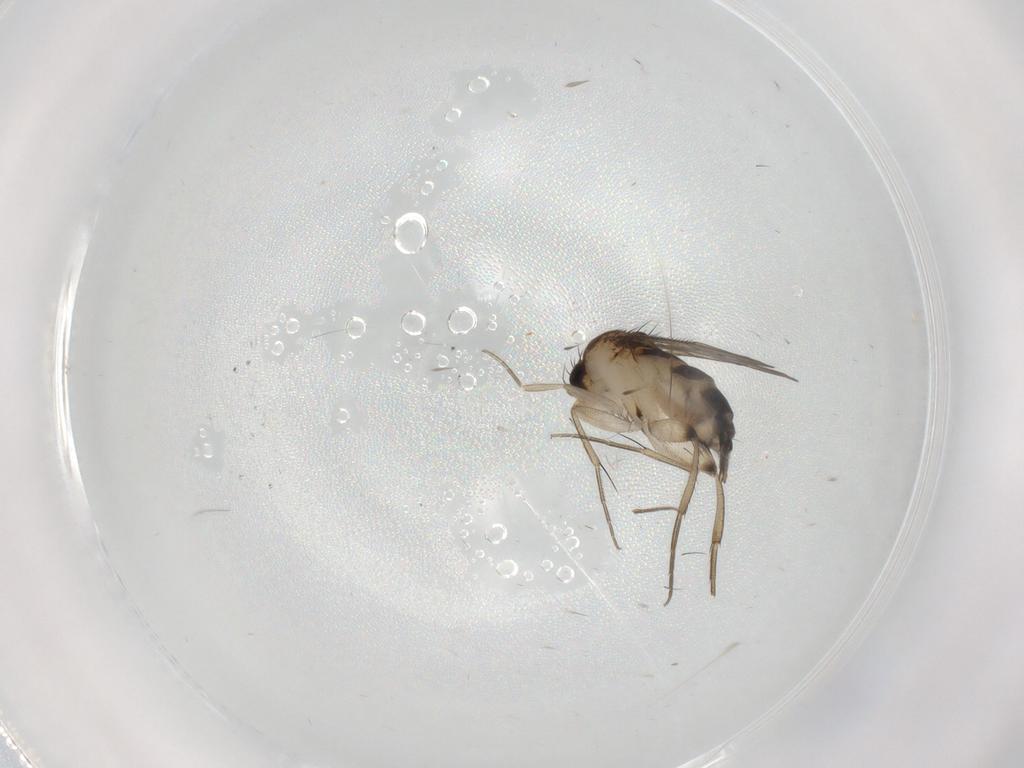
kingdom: Animalia
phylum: Arthropoda
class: Insecta
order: Diptera
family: Phoridae
